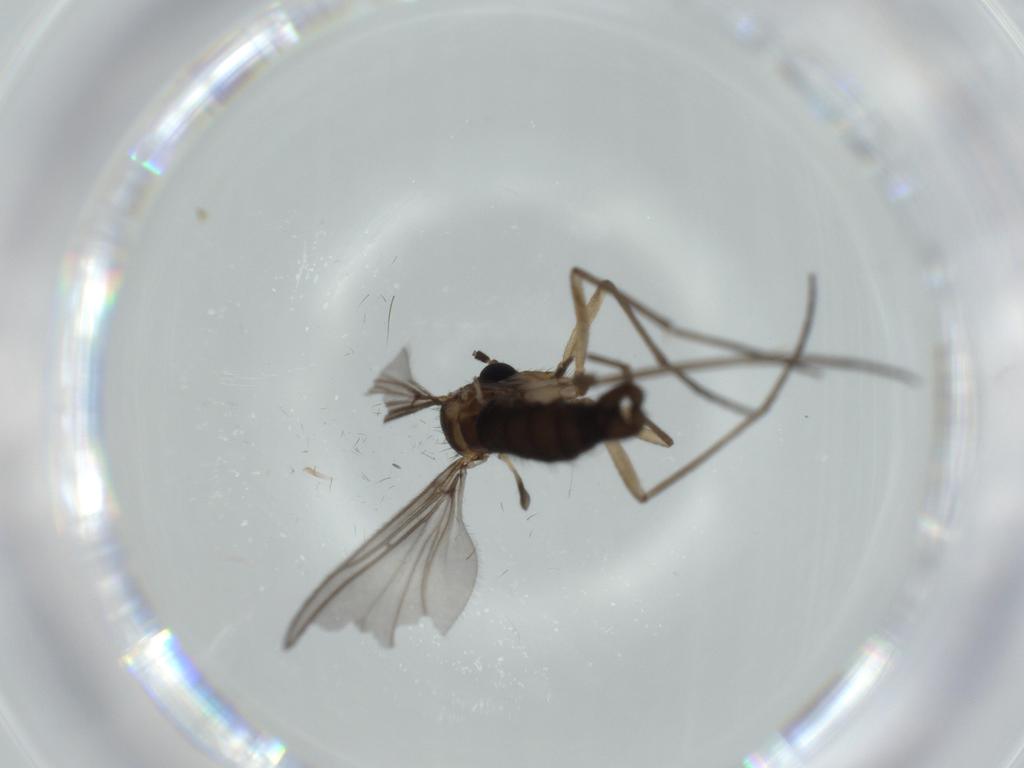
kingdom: Animalia
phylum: Arthropoda
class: Insecta
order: Diptera
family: Sciaridae
